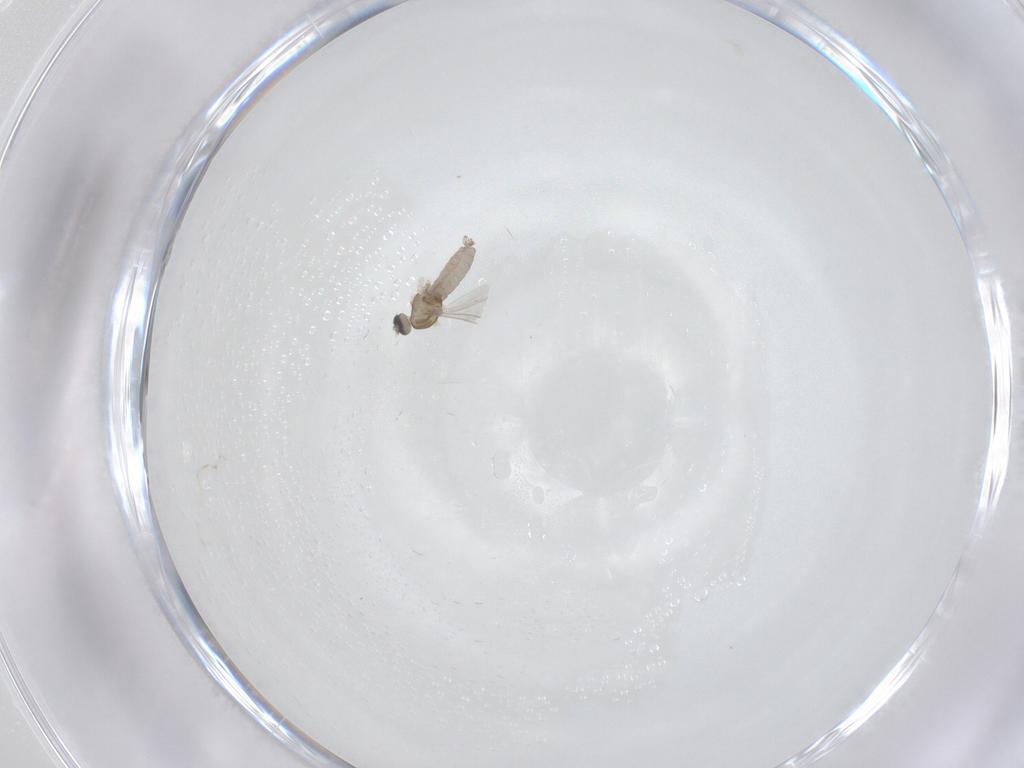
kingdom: Animalia
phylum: Arthropoda
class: Insecta
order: Diptera
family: Cecidomyiidae
